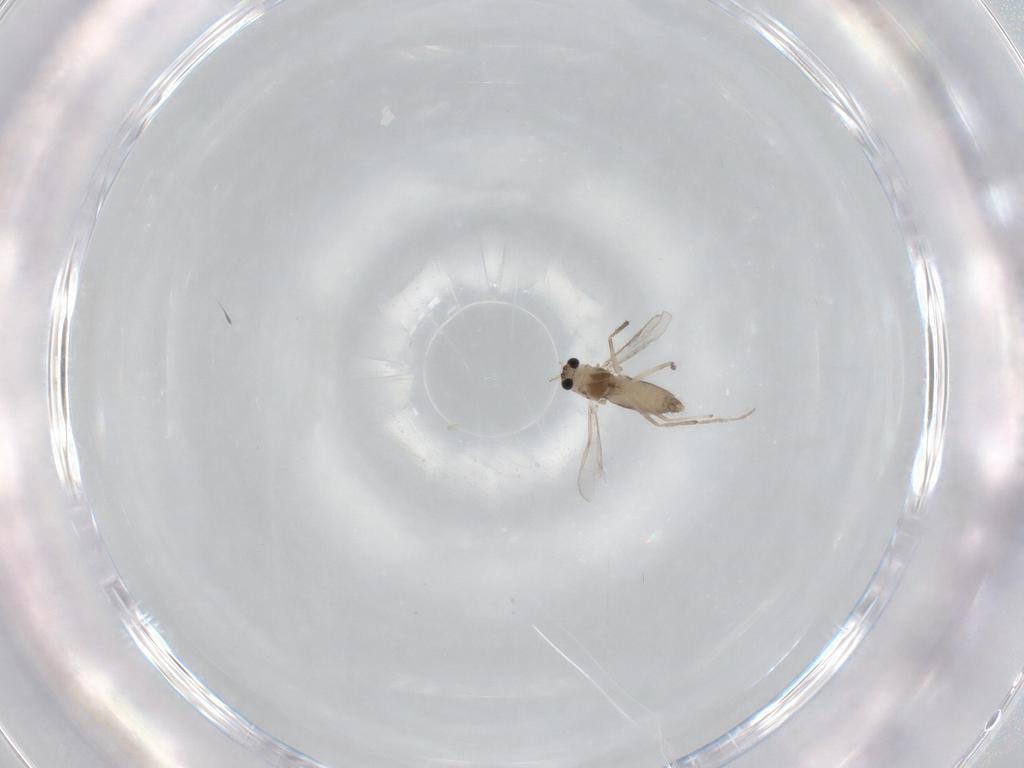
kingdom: Animalia
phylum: Arthropoda
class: Insecta
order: Diptera
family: Chironomidae
